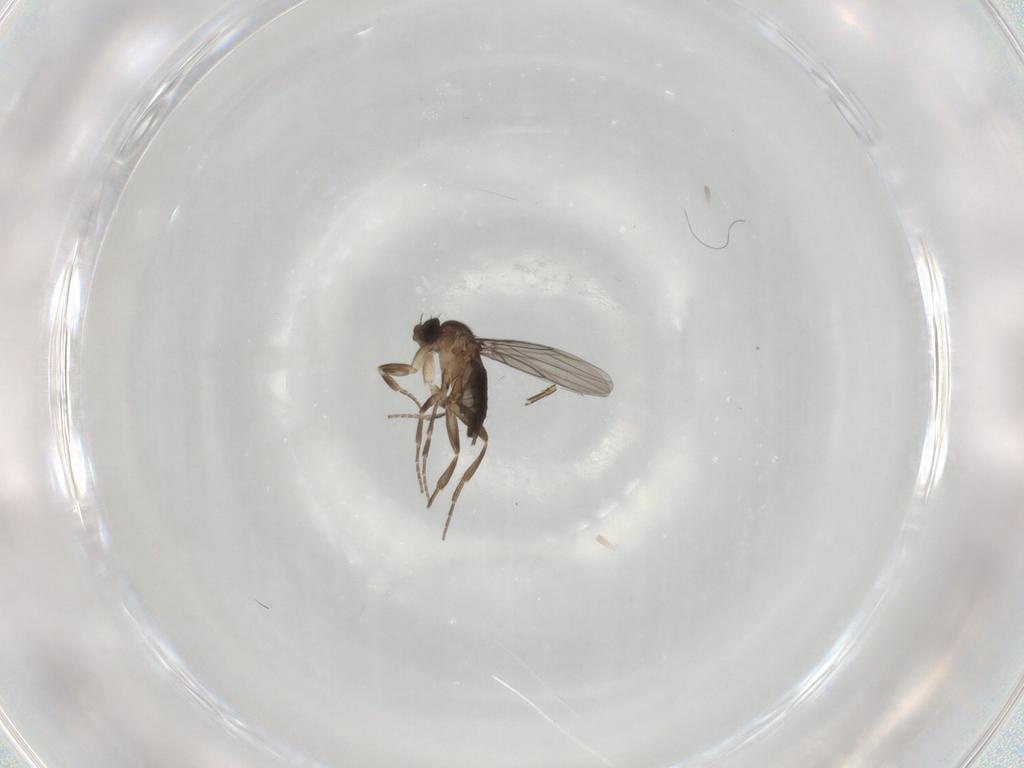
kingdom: Animalia
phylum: Arthropoda
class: Insecta
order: Diptera
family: Phoridae
